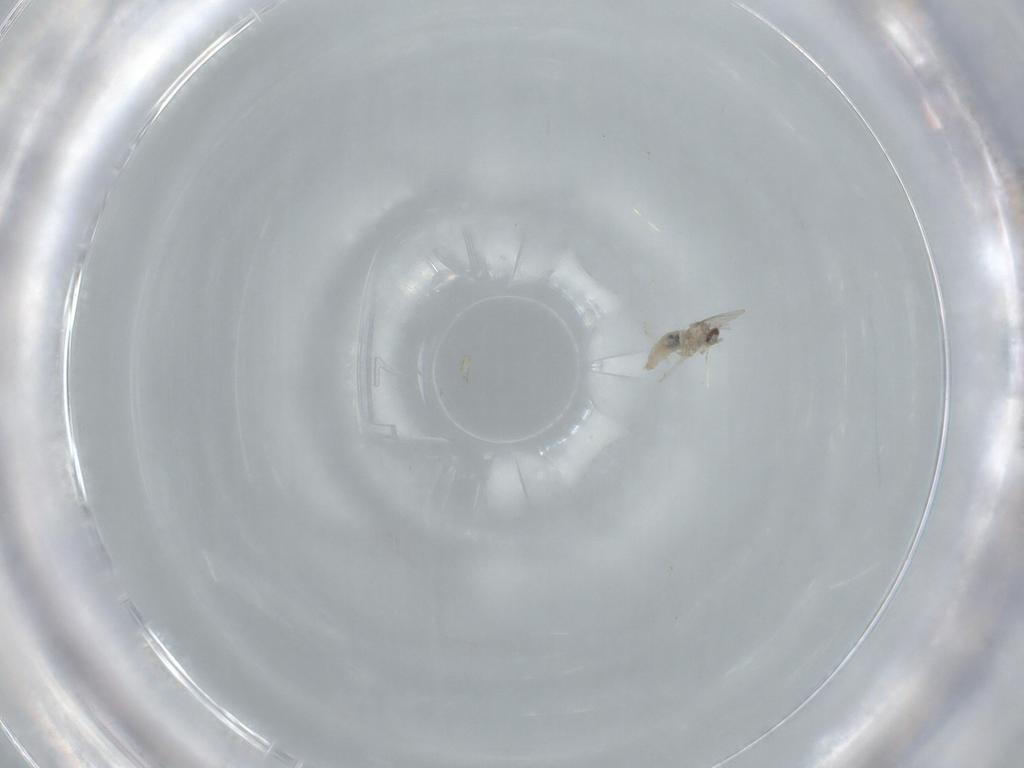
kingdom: Animalia
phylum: Arthropoda
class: Insecta
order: Diptera
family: Cecidomyiidae
